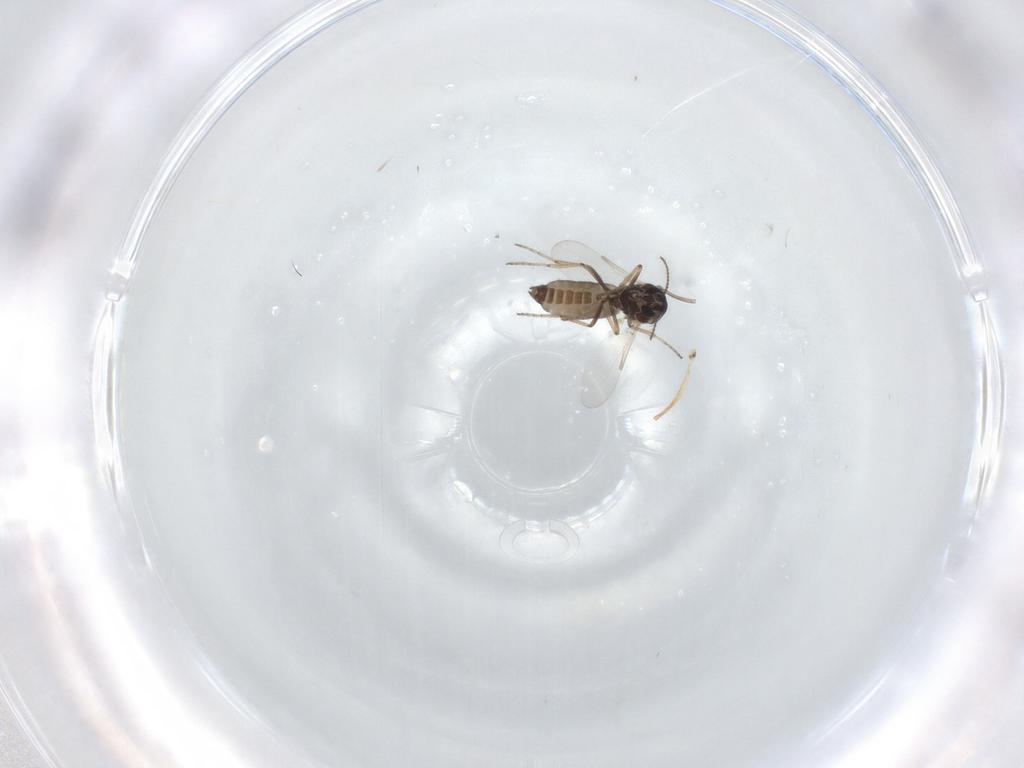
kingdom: Animalia
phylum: Arthropoda
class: Insecta
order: Diptera
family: Ceratopogonidae
